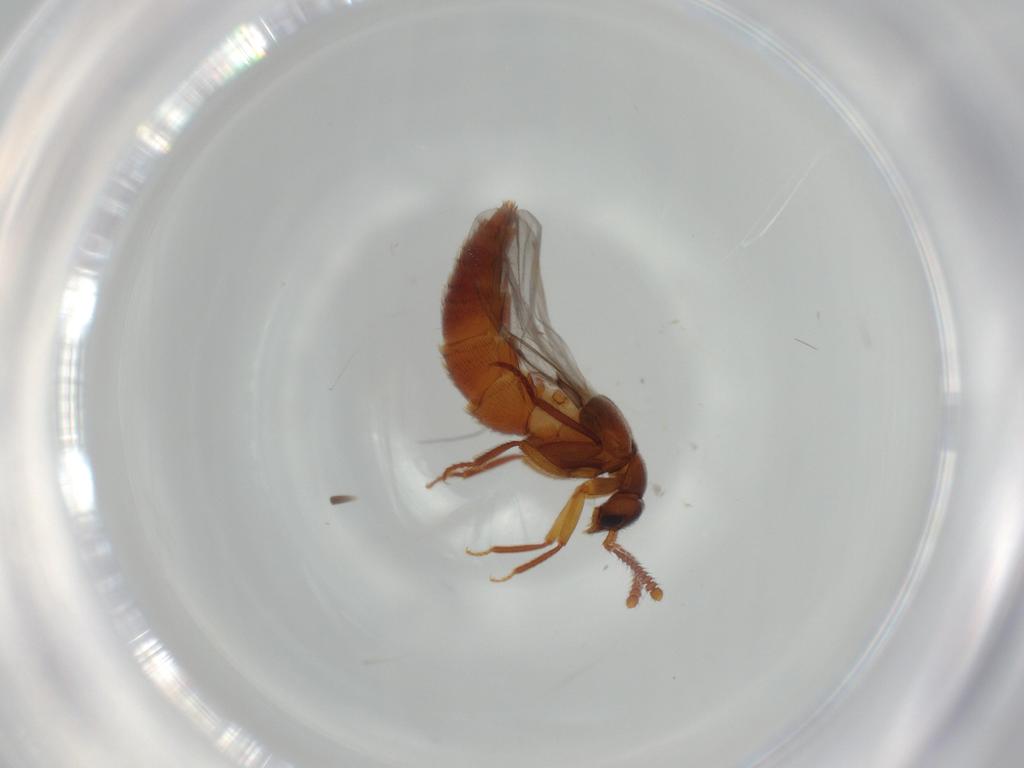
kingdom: Animalia
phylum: Arthropoda
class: Insecta
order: Coleoptera
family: Staphylinidae
